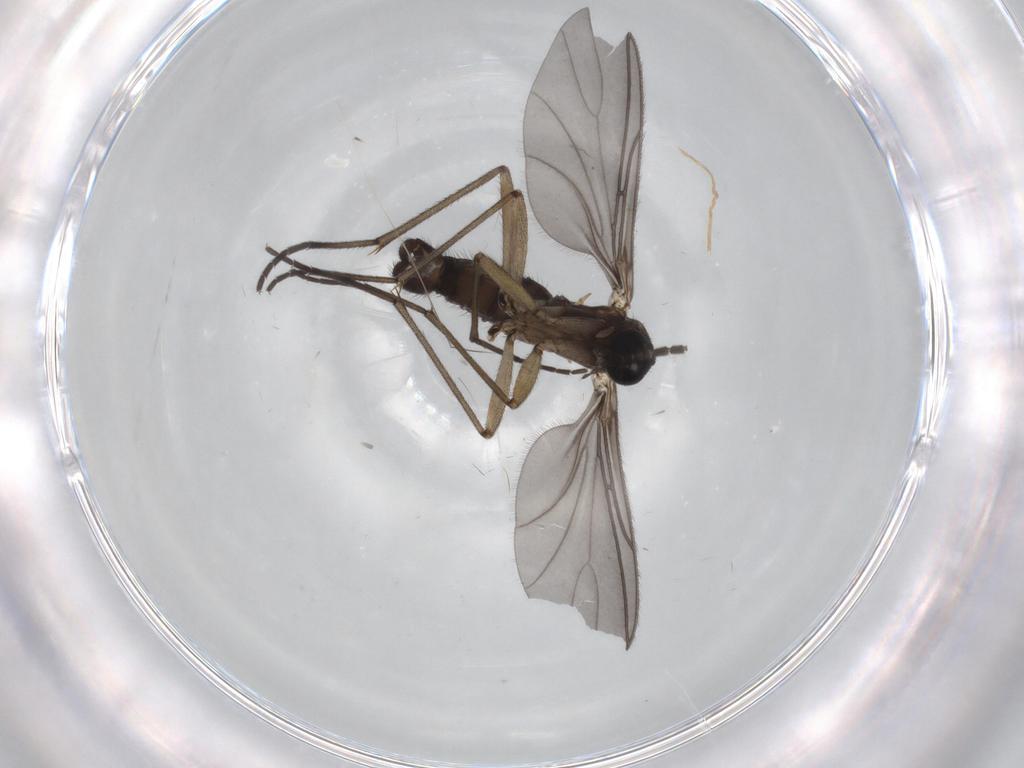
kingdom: Animalia
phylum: Arthropoda
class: Insecta
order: Diptera
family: Sciaridae
